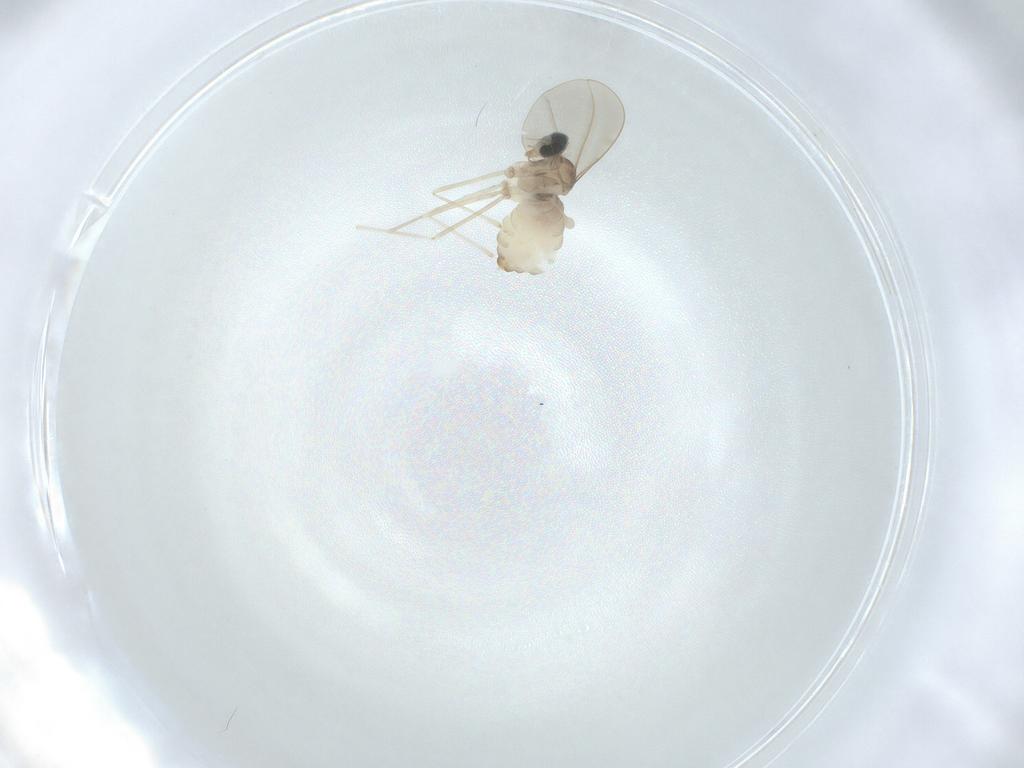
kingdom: Animalia
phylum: Arthropoda
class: Insecta
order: Diptera
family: Cecidomyiidae
